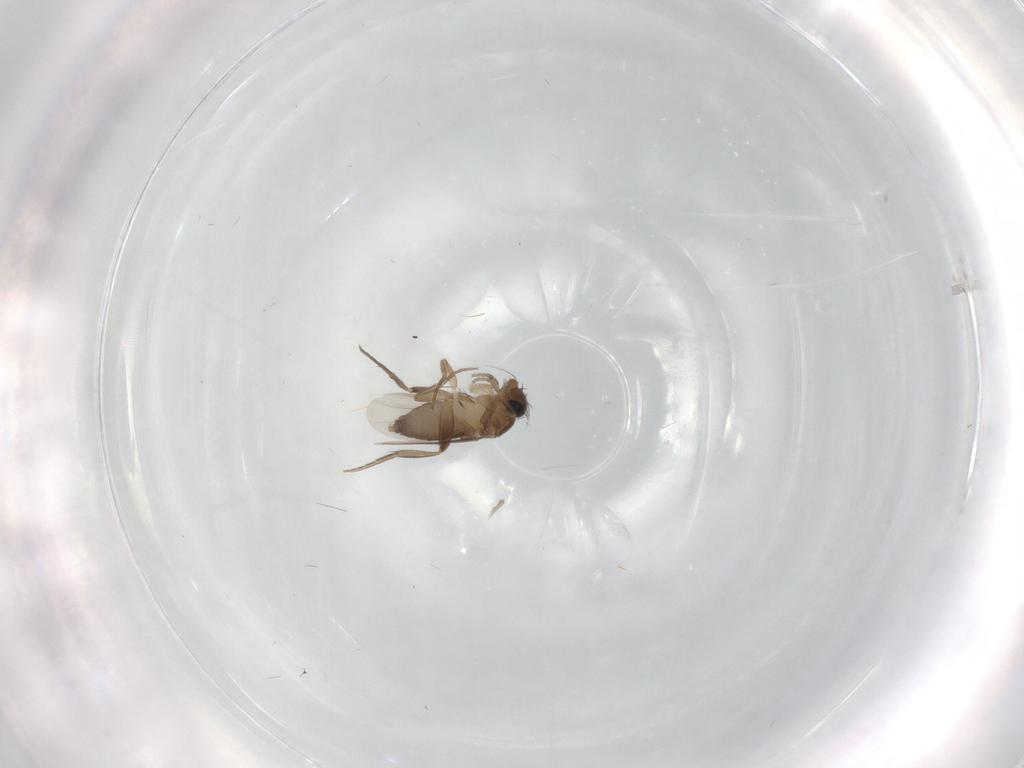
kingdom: Animalia
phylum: Arthropoda
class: Insecta
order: Diptera
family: Phoridae
